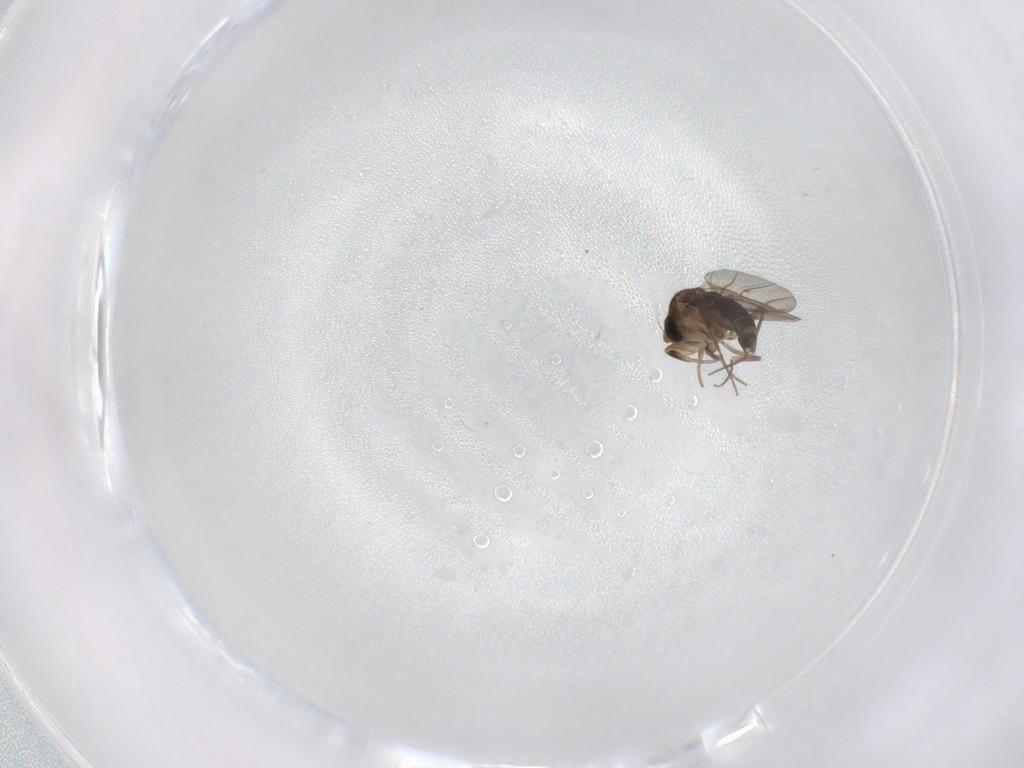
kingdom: Animalia
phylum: Arthropoda
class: Insecta
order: Diptera
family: Phoridae
